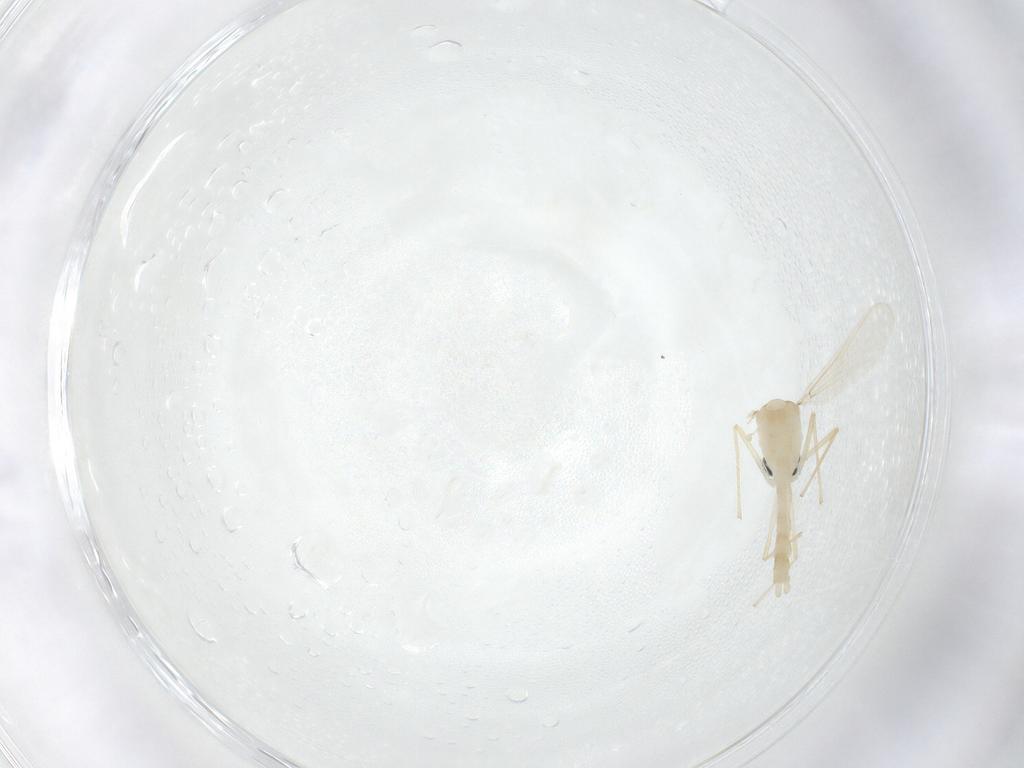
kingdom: Animalia
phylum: Arthropoda
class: Insecta
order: Diptera
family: Chironomidae
